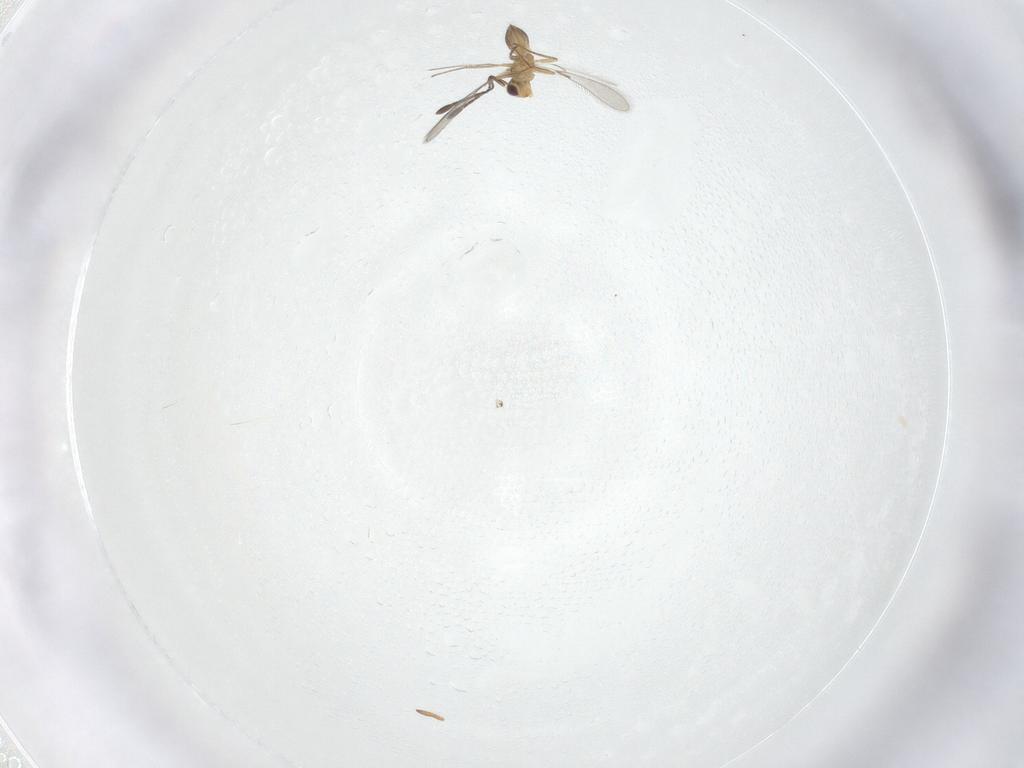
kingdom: Animalia
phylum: Arthropoda
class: Insecta
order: Hymenoptera
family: Mymaridae
